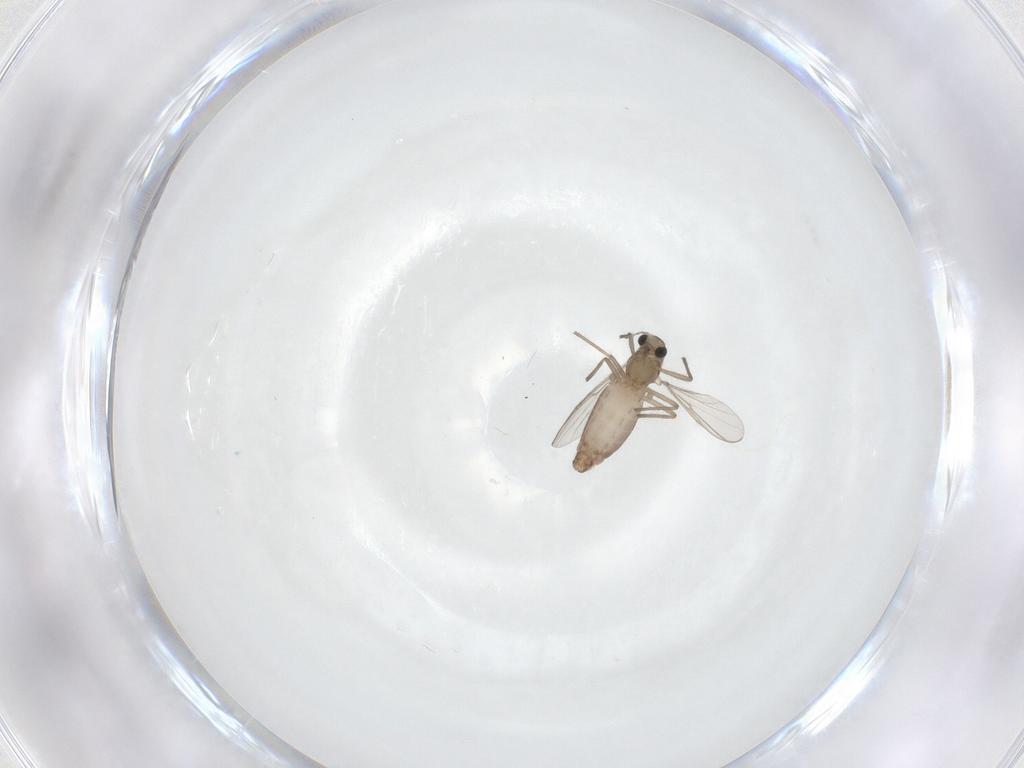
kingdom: Animalia
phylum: Arthropoda
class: Insecta
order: Diptera
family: Chironomidae
